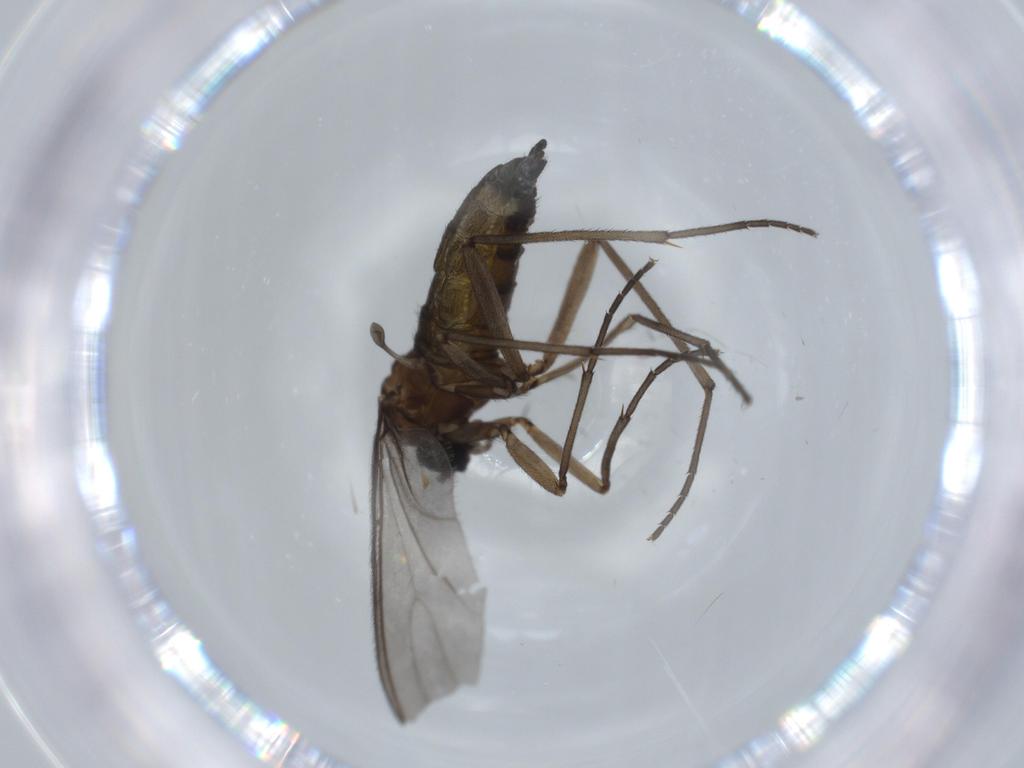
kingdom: Animalia
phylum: Arthropoda
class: Insecta
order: Diptera
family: Sciaridae
